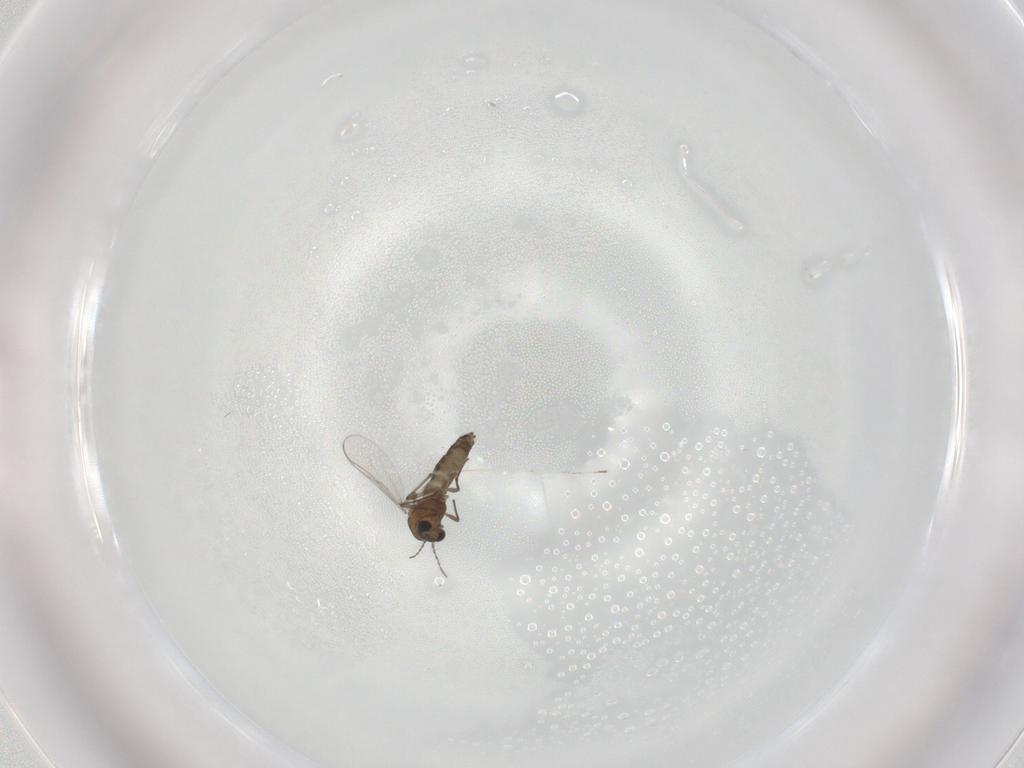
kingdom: Animalia
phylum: Arthropoda
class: Insecta
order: Diptera
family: Chironomidae
